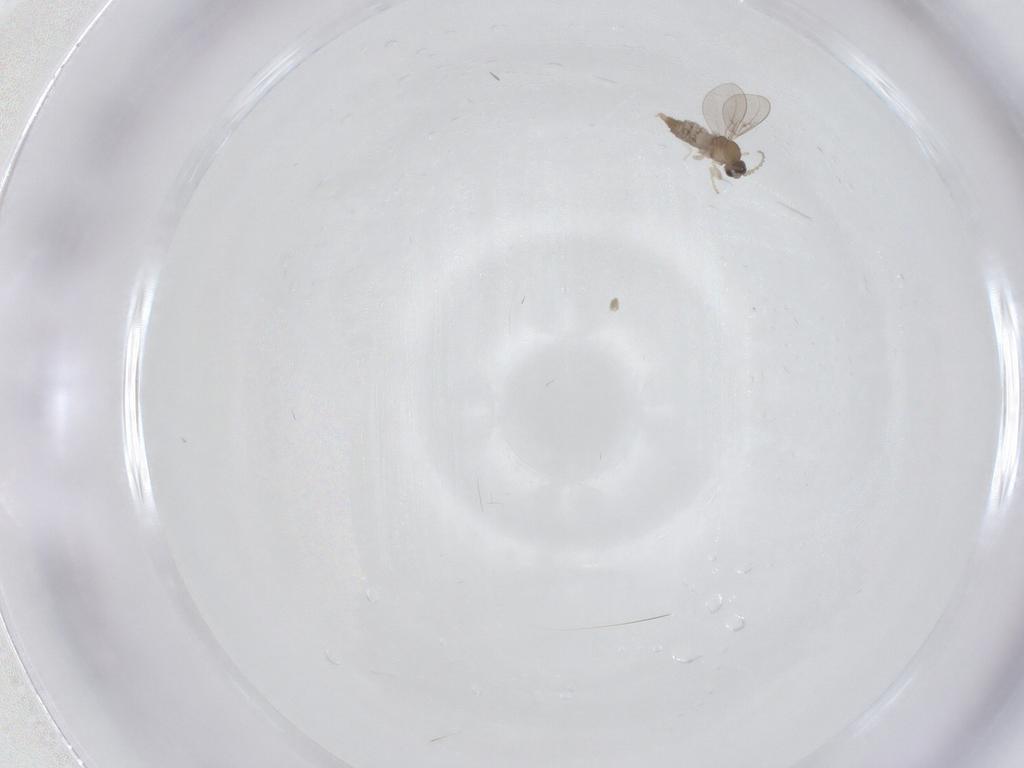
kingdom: Animalia
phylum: Arthropoda
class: Insecta
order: Diptera
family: Cecidomyiidae
